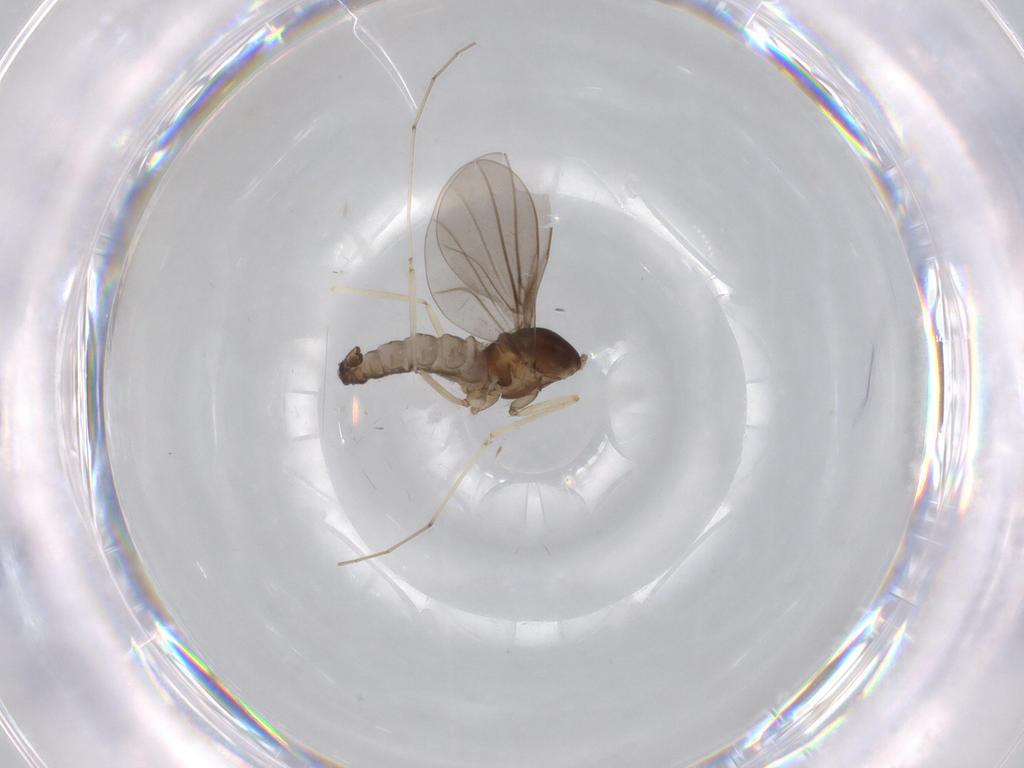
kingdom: Animalia
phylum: Arthropoda
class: Insecta
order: Diptera
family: Cecidomyiidae
